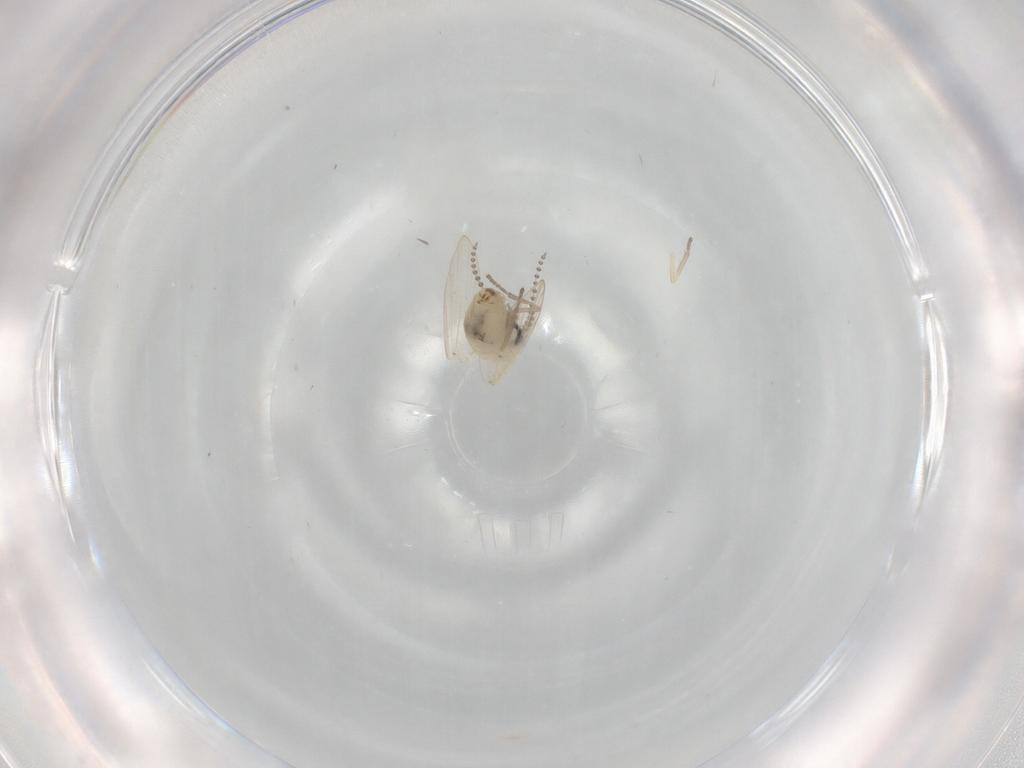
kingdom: Animalia
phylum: Arthropoda
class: Insecta
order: Diptera
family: Psychodidae
